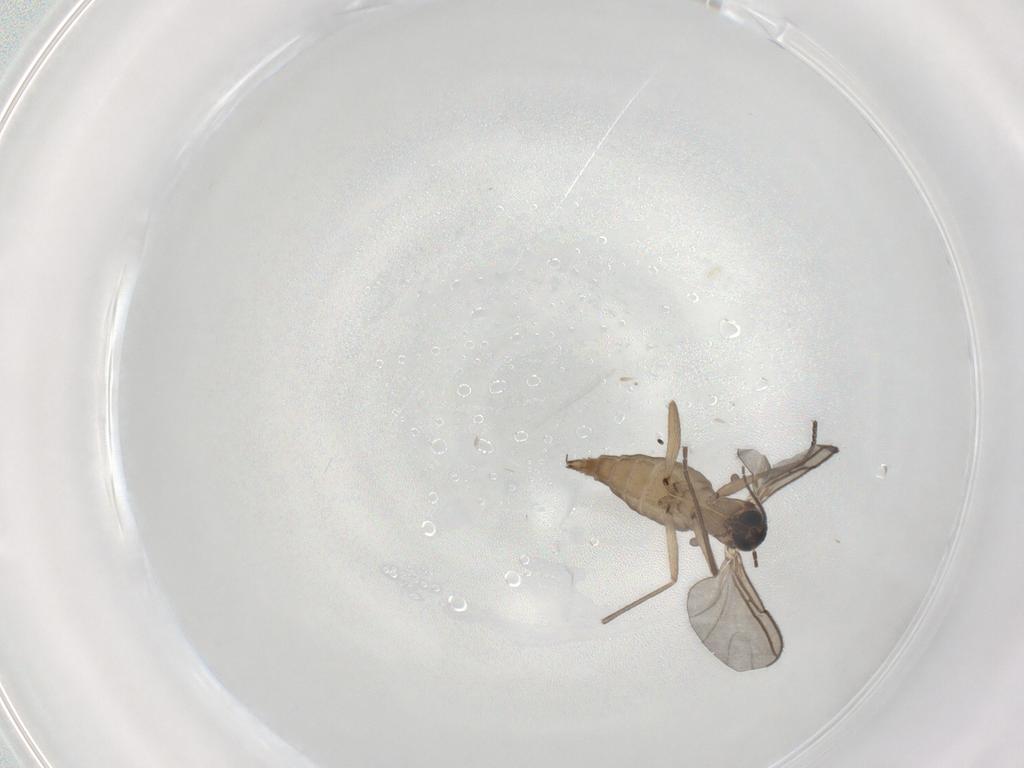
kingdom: Animalia
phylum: Arthropoda
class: Insecta
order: Diptera
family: Sciaridae
